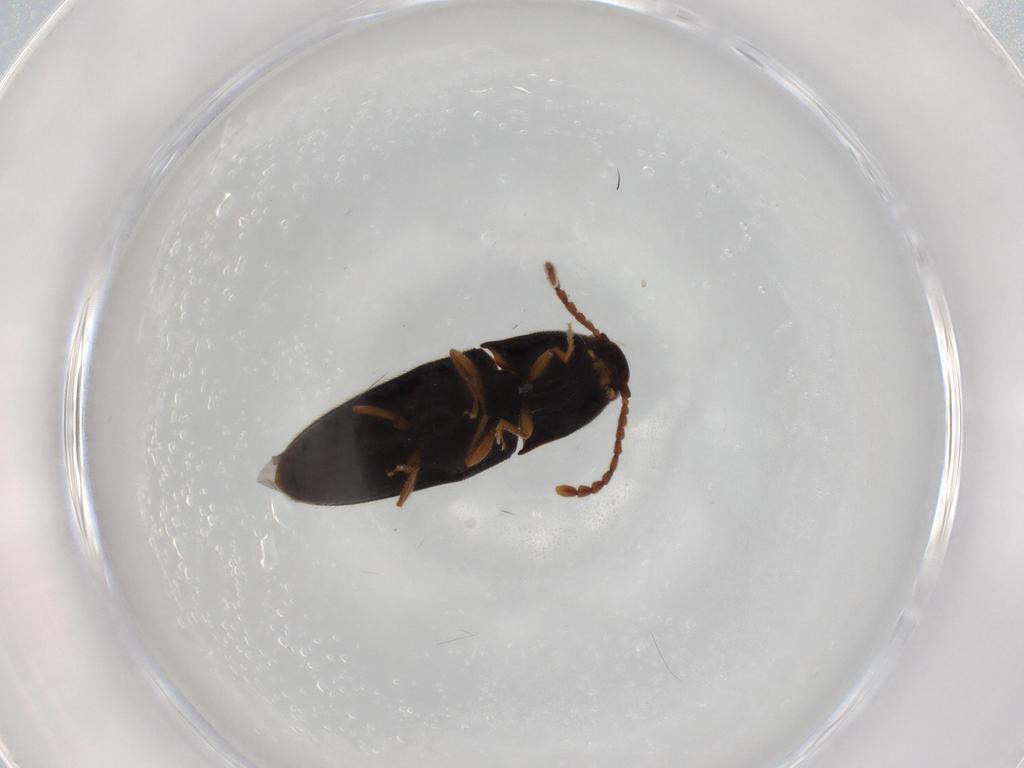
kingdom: Animalia
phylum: Arthropoda
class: Insecta
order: Coleoptera
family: Elateridae
